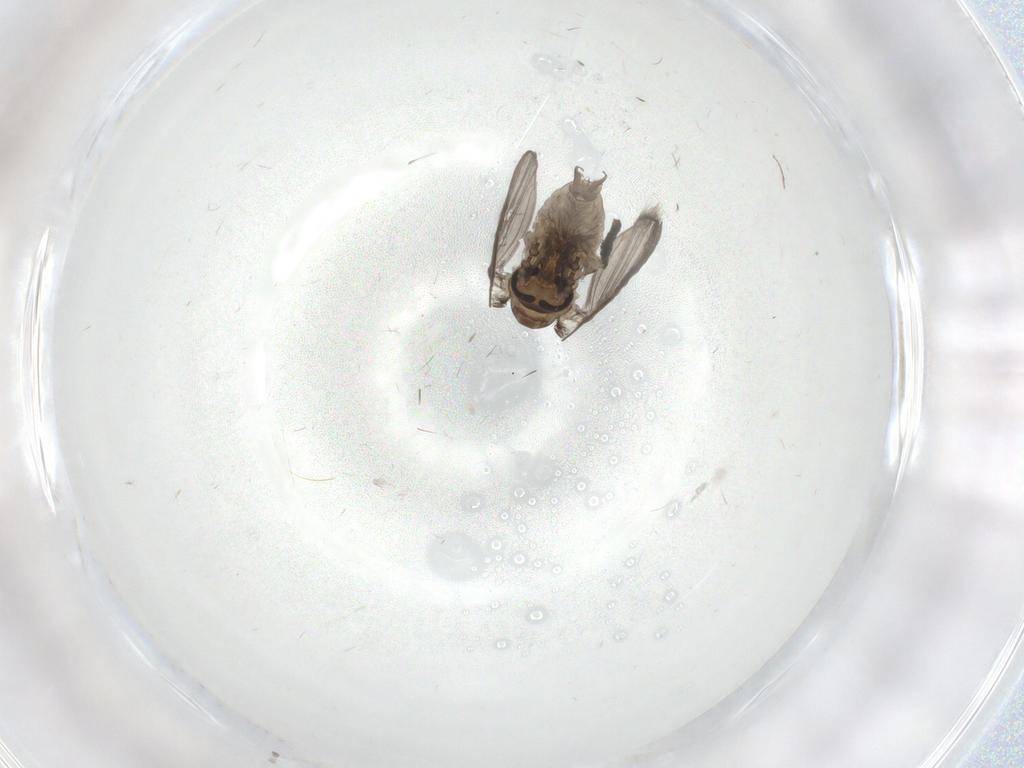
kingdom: Animalia
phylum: Arthropoda
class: Insecta
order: Diptera
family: Psychodidae
